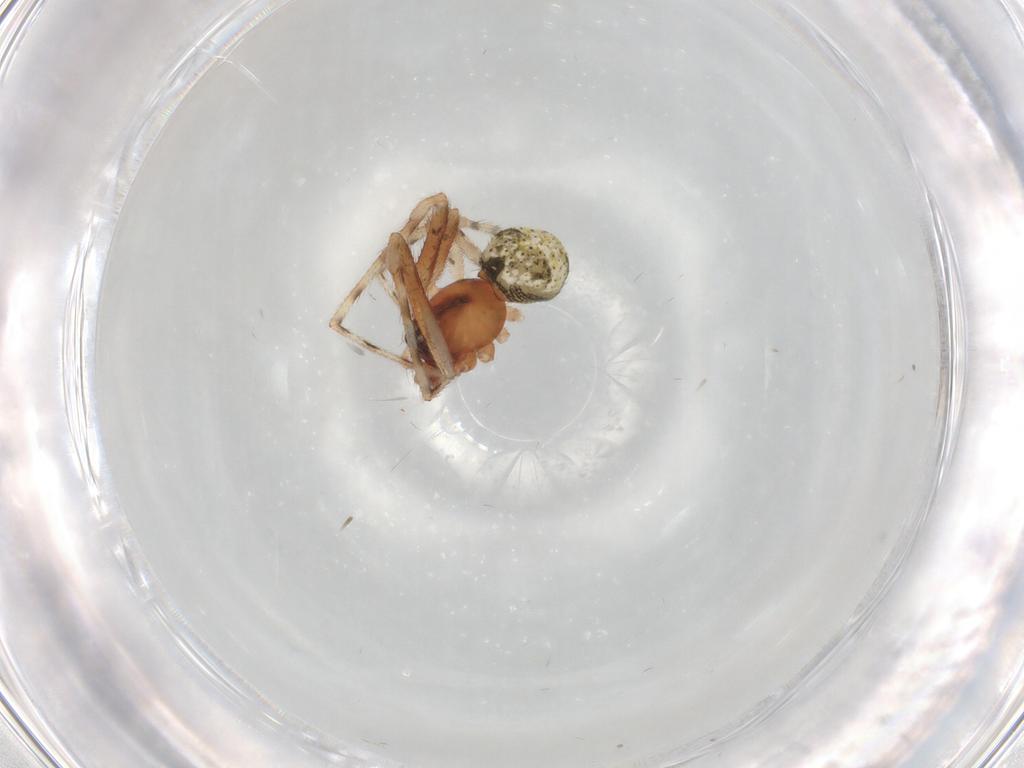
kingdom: Animalia
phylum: Arthropoda
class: Arachnida
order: Araneae
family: Theridiidae
